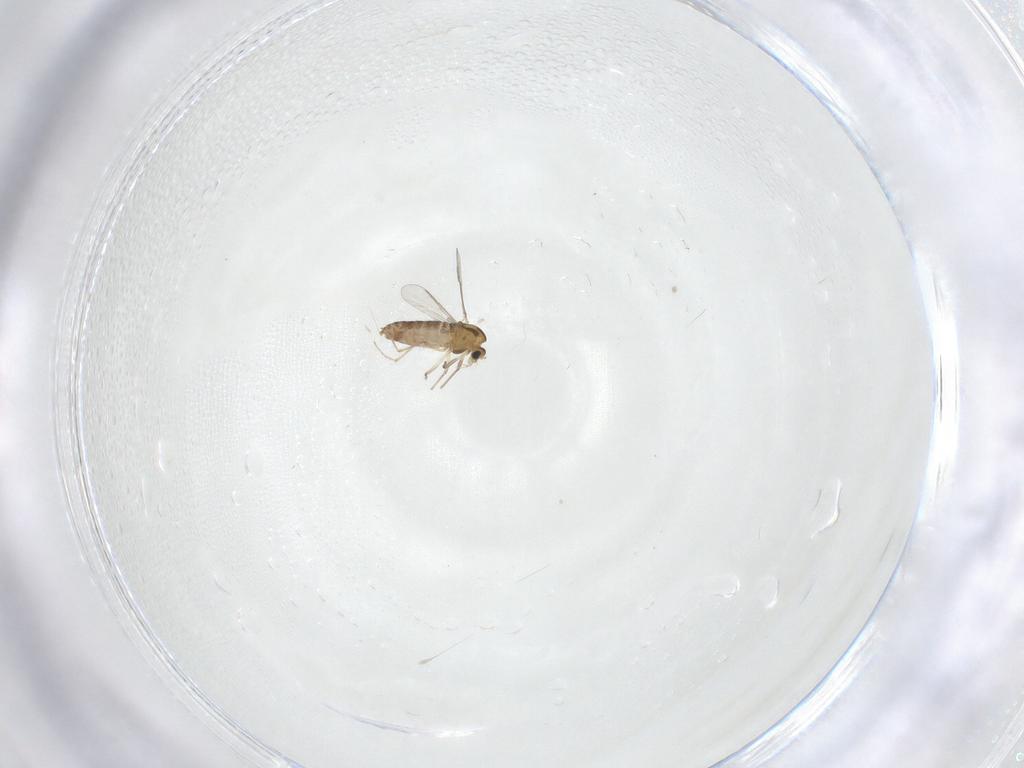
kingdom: Animalia
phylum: Arthropoda
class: Insecta
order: Diptera
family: Chironomidae
